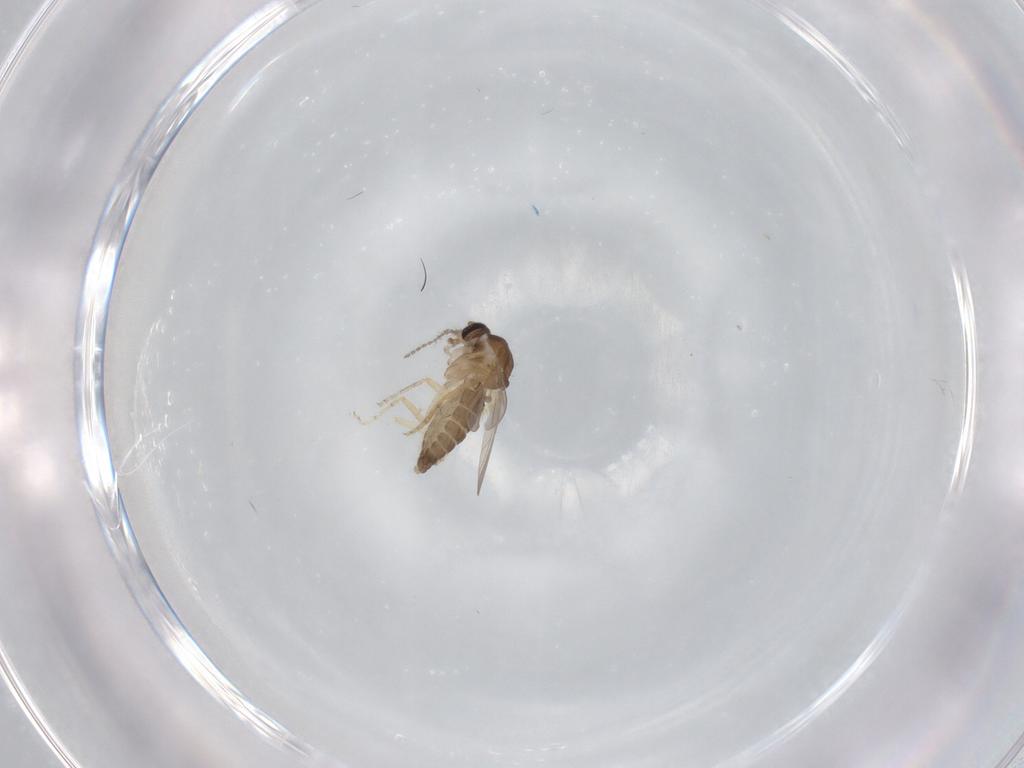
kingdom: Animalia
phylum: Arthropoda
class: Insecta
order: Diptera
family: Ceratopogonidae
